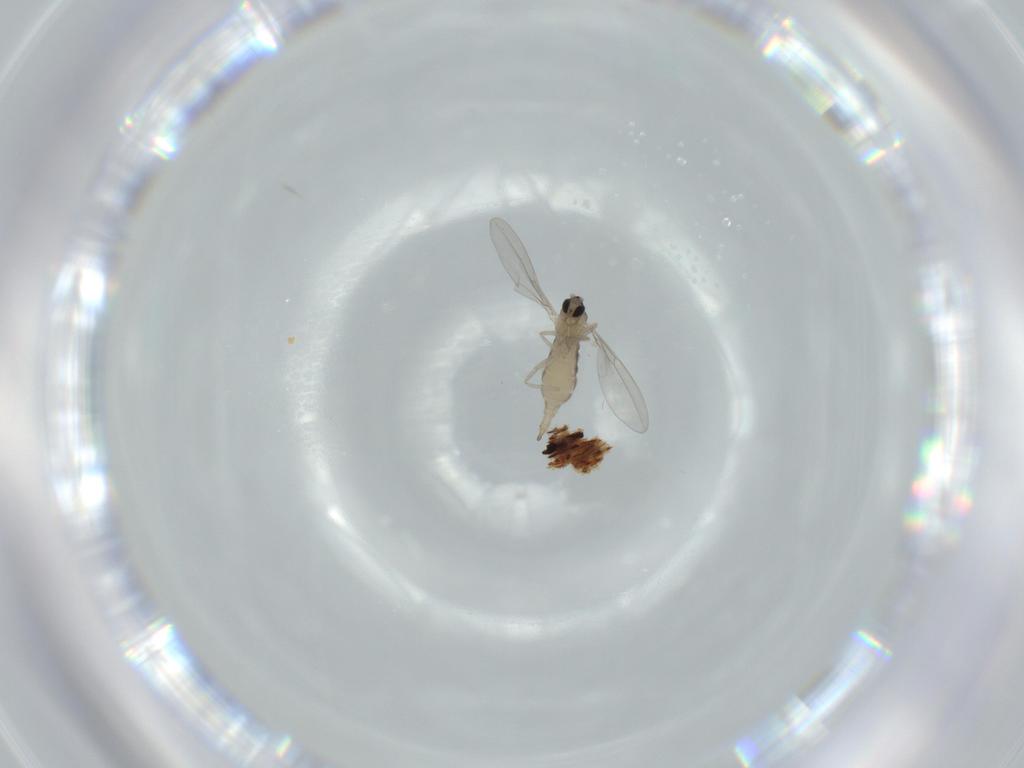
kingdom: Animalia
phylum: Arthropoda
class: Insecta
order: Diptera
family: Cecidomyiidae
